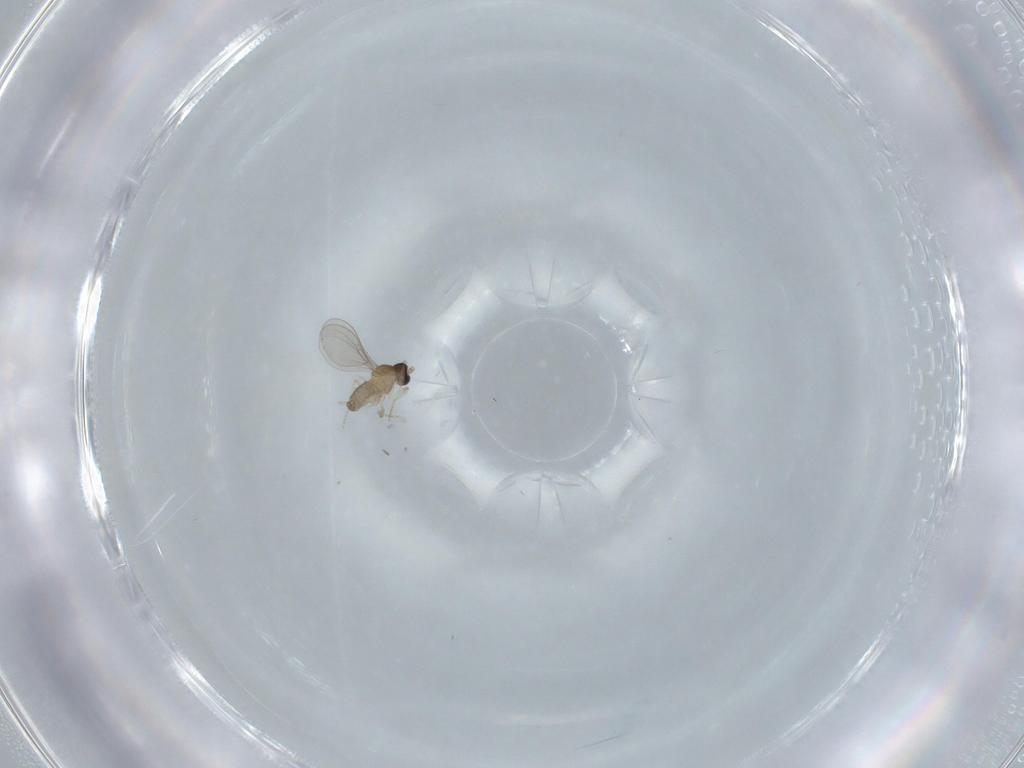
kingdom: Animalia
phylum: Arthropoda
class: Insecta
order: Diptera
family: Cecidomyiidae
